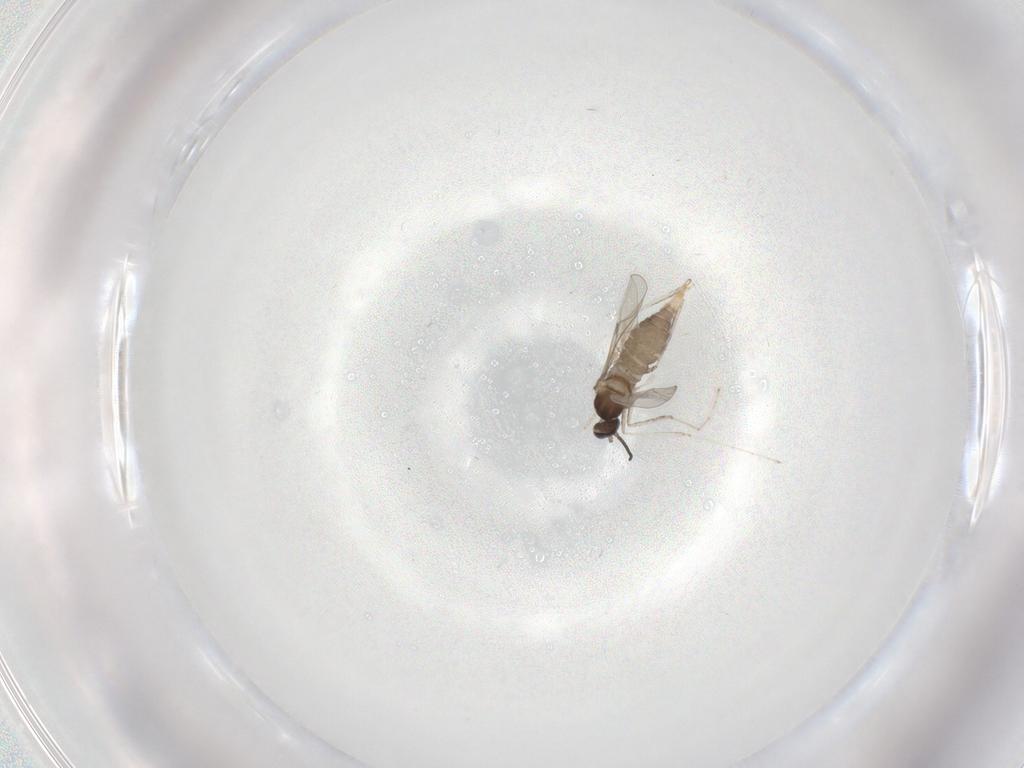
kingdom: Animalia
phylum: Arthropoda
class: Insecta
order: Diptera
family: Cecidomyiidae
